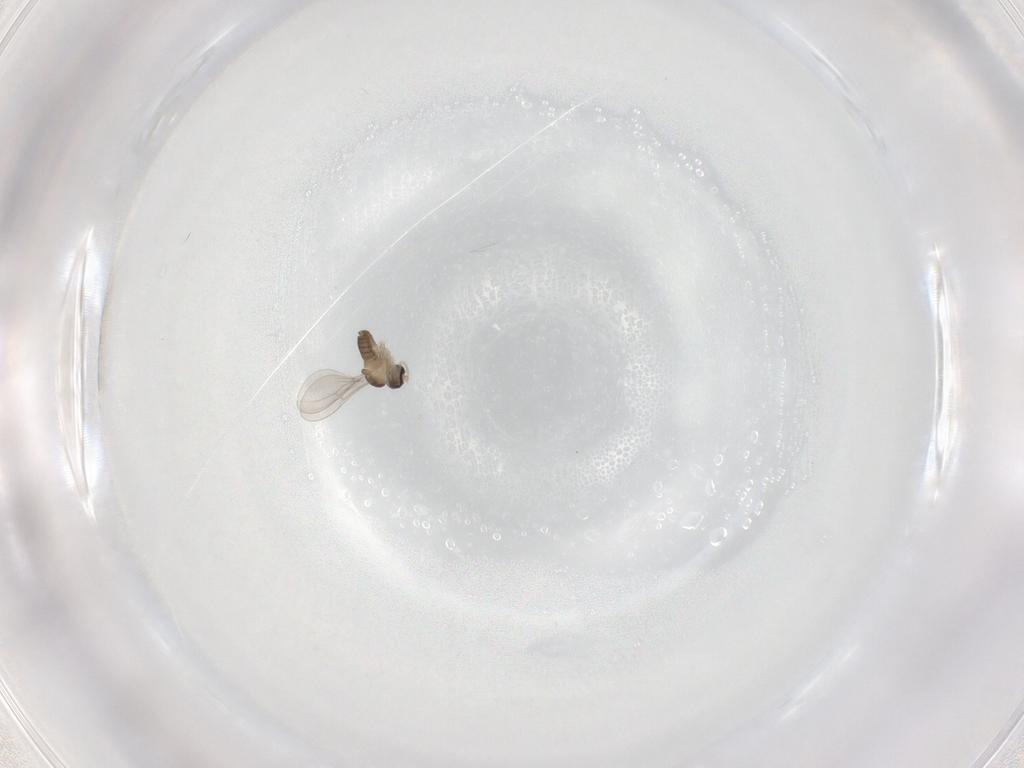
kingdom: Animalia
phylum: Arthropoda
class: Insecta
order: Diptera
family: Cecidomyiidae
